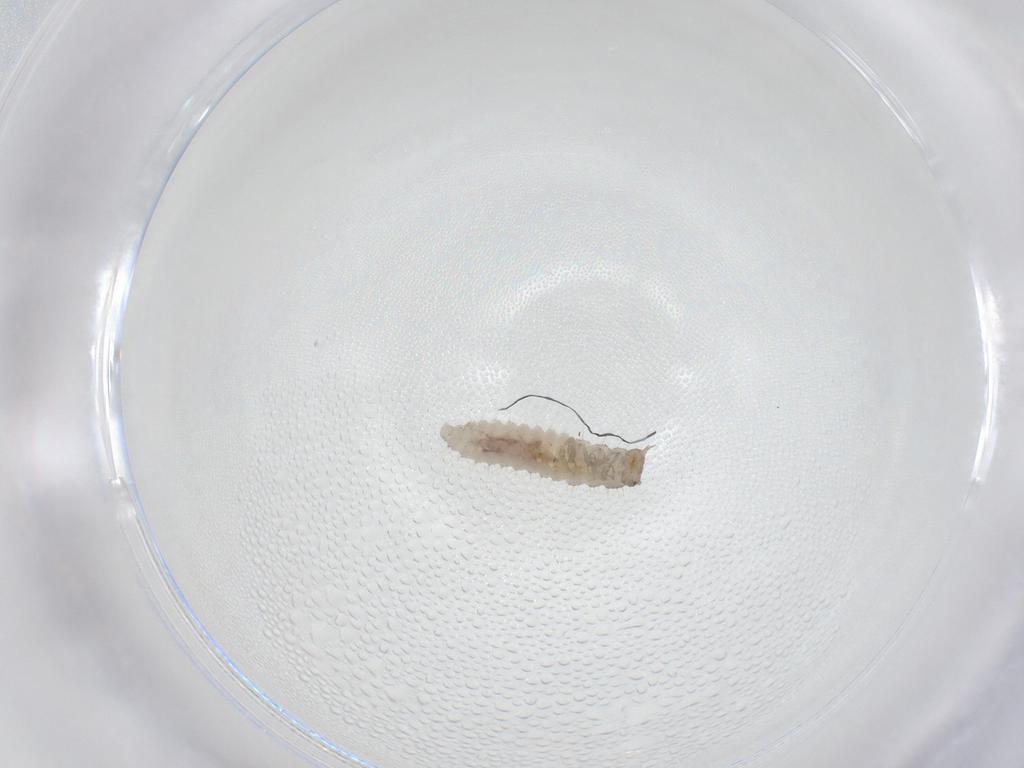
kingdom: Animalia
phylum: Arthropoda
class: Insecta
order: Coleoptera
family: Cryptophagidae
